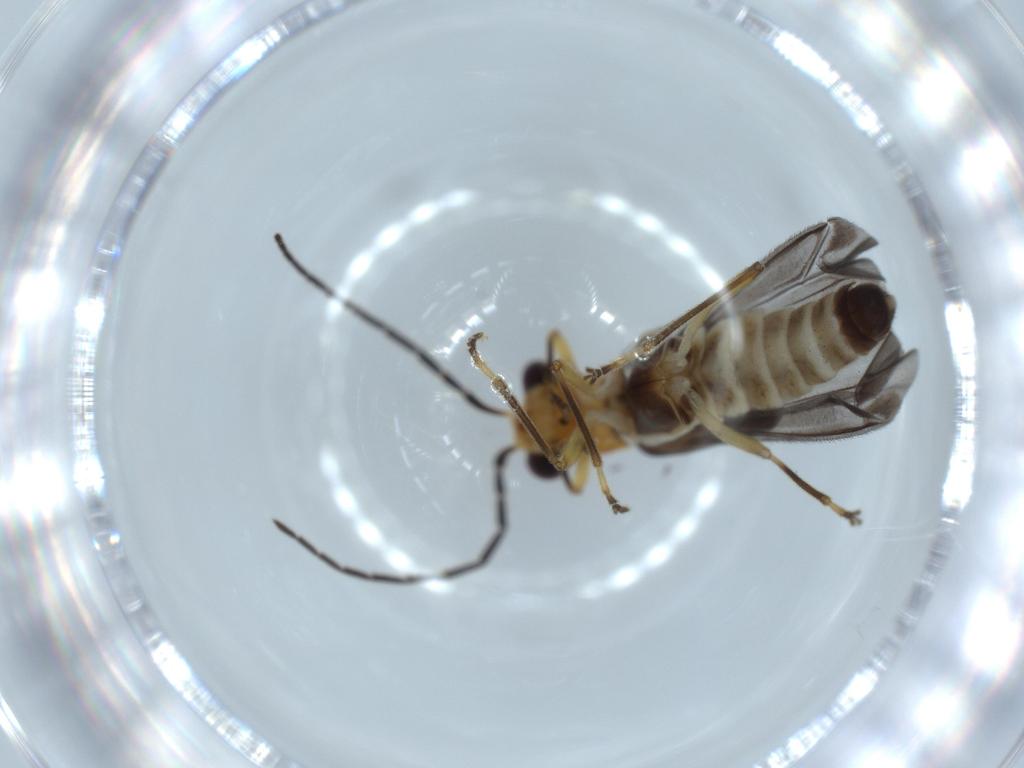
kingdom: Animalia
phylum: Arthropoda
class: Insecta
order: Coleoptera
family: Cantharidae
